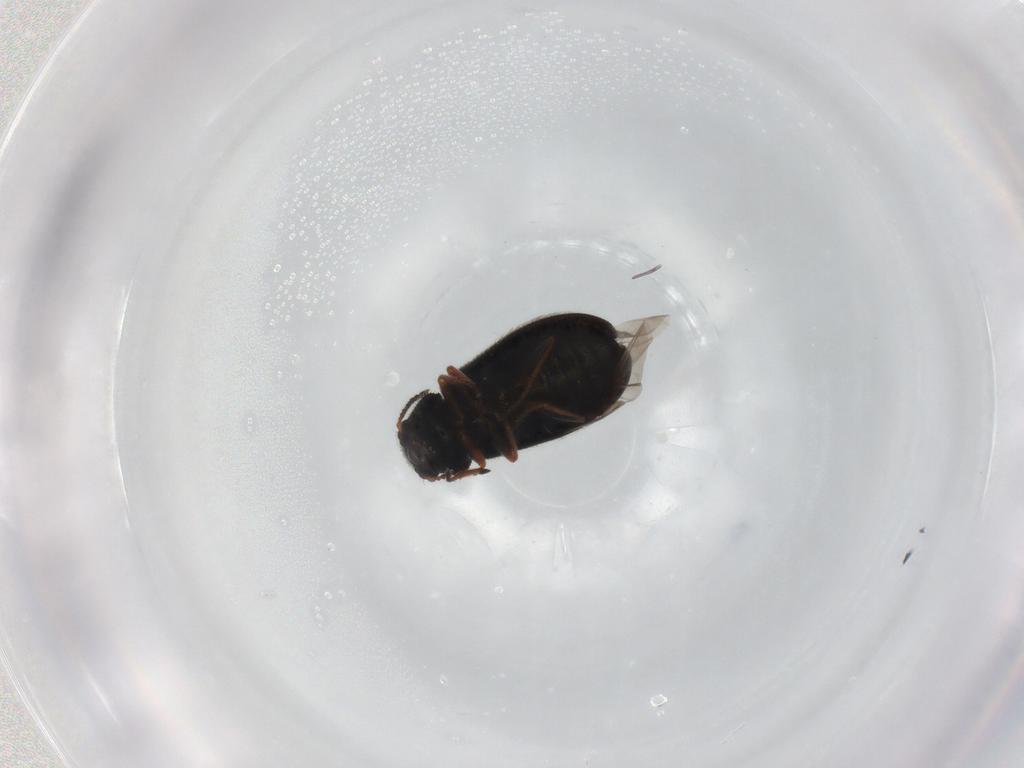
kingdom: Animalia
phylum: Arthropoda
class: Insecta
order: Coleoptera
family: Melyridae
